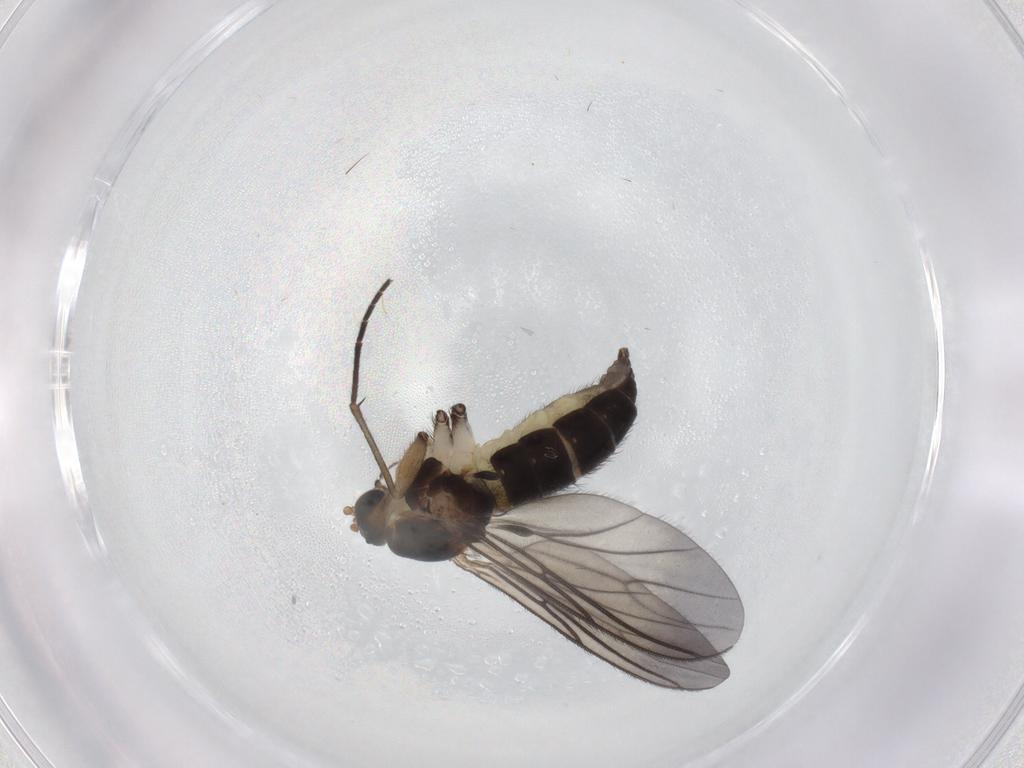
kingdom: Animalia
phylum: Arthropoda
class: Insecta
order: Diptera
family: Sciaridae
